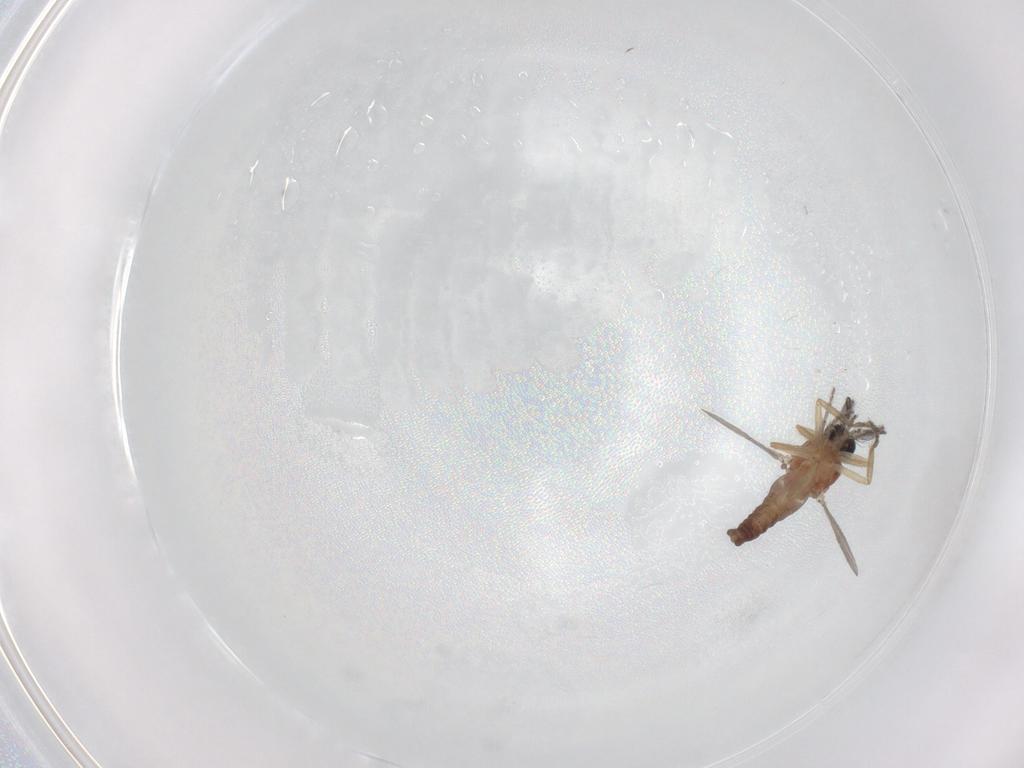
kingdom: Animalia
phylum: Arthropoda
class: Insecta
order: Diptera
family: Ceratopogonidae
